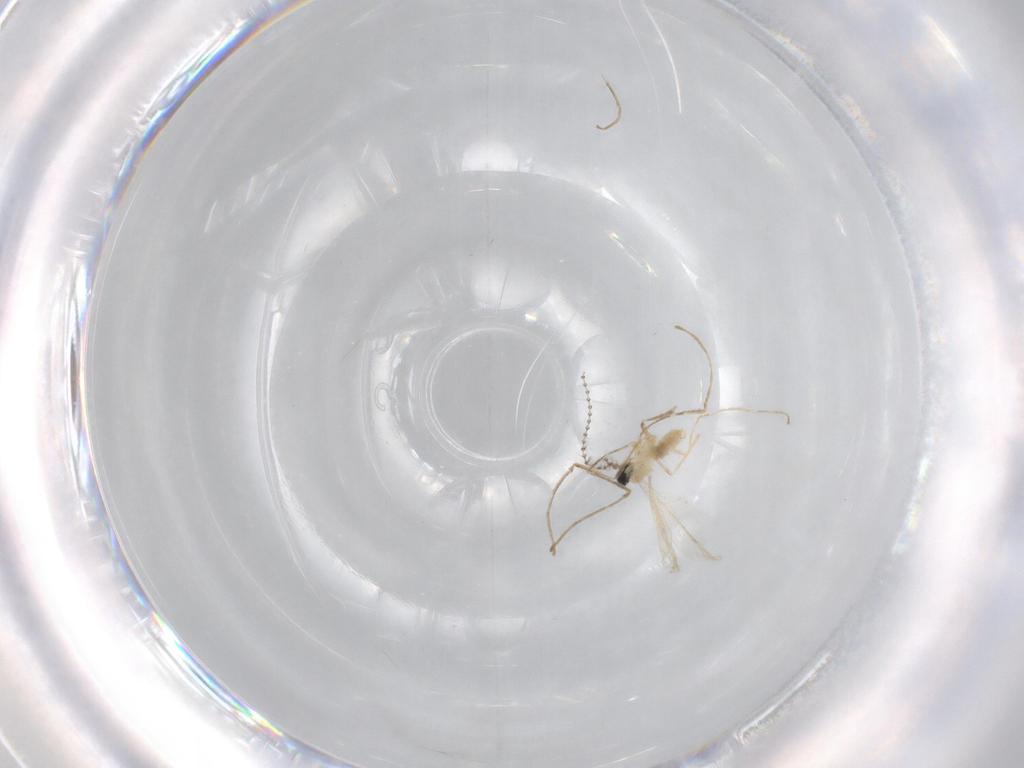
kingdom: Animalia
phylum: Arthropoda
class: Insecta
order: Diptera
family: Cecidomyiidae
